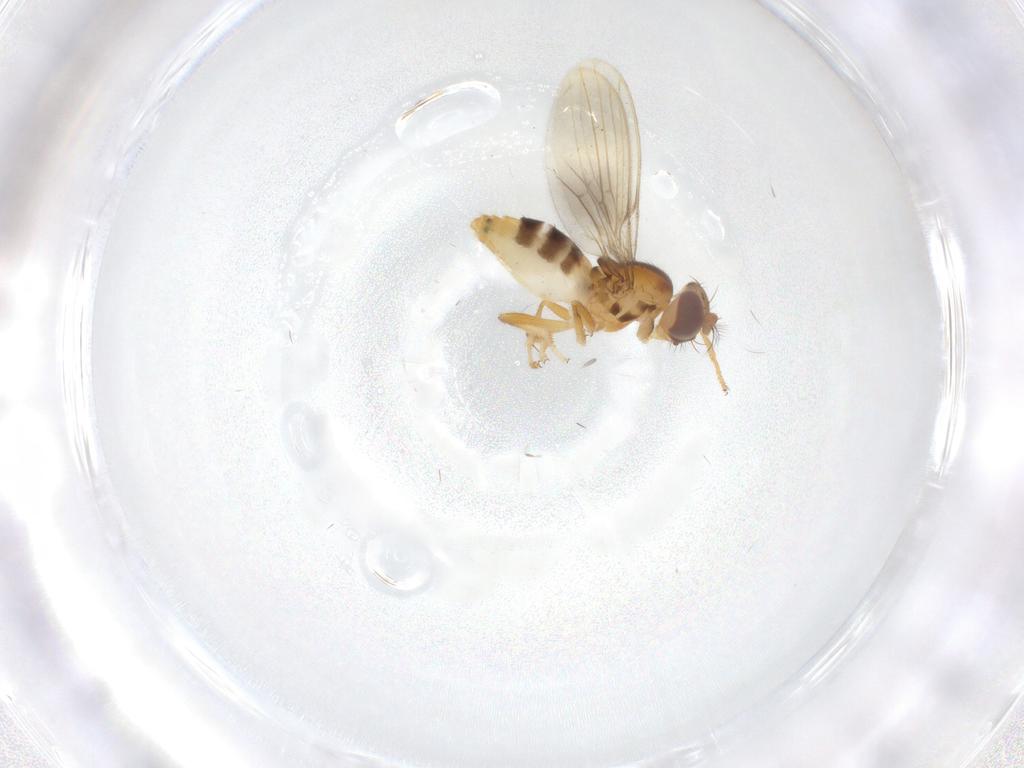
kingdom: Animalia
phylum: Arthropoda
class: Insecta
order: Diptera
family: Periscelididae
